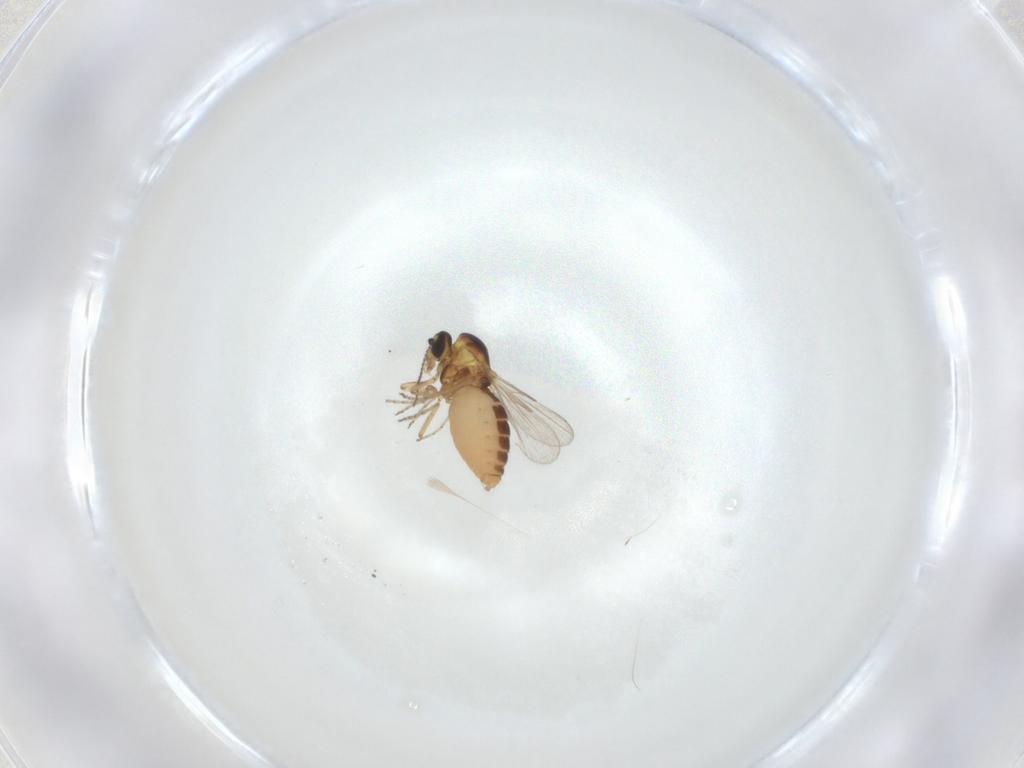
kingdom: Animalia
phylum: Arthropoda
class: Insecta
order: Diptera
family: Ceratopogonidae
